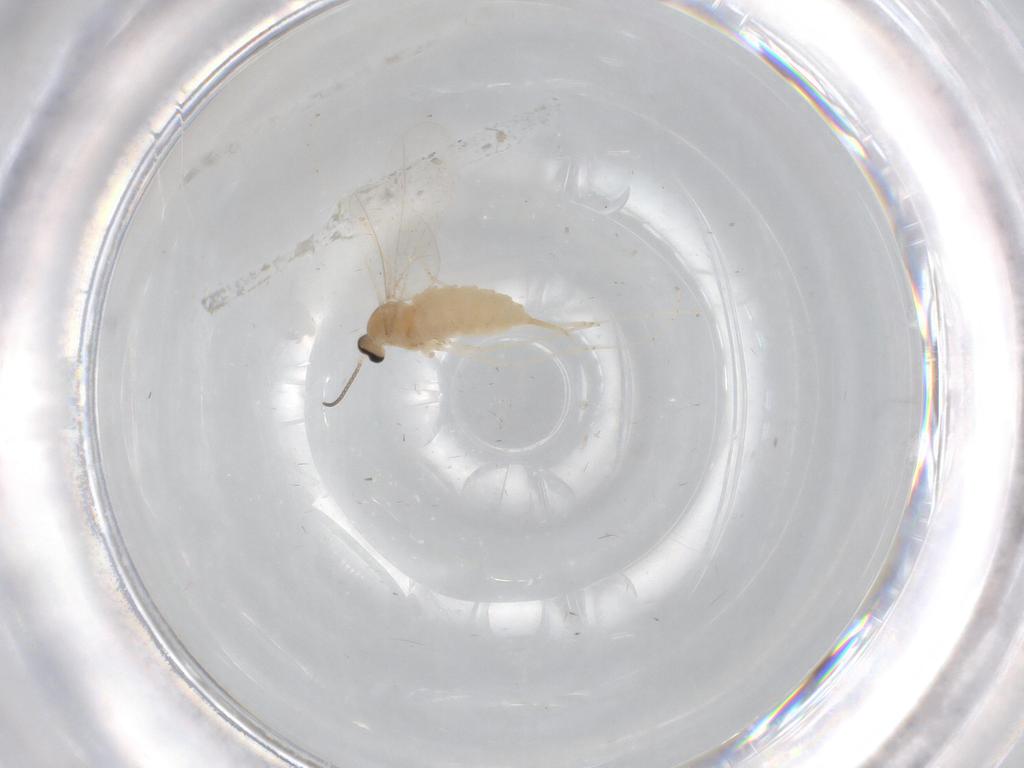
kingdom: Animalia
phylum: Arthropoda
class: Insecta
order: Diptera
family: Cecidomyiidae
